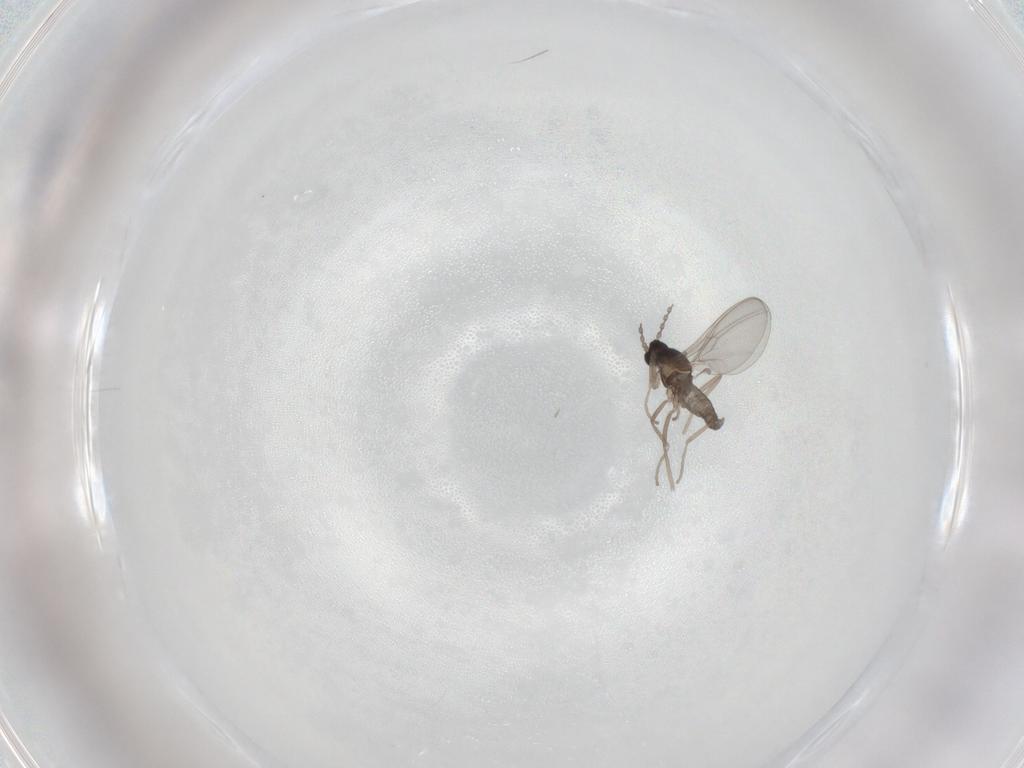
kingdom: Animalia
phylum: Arthropoda
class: Insecta
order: Diptera
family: Cecidomyiidae
